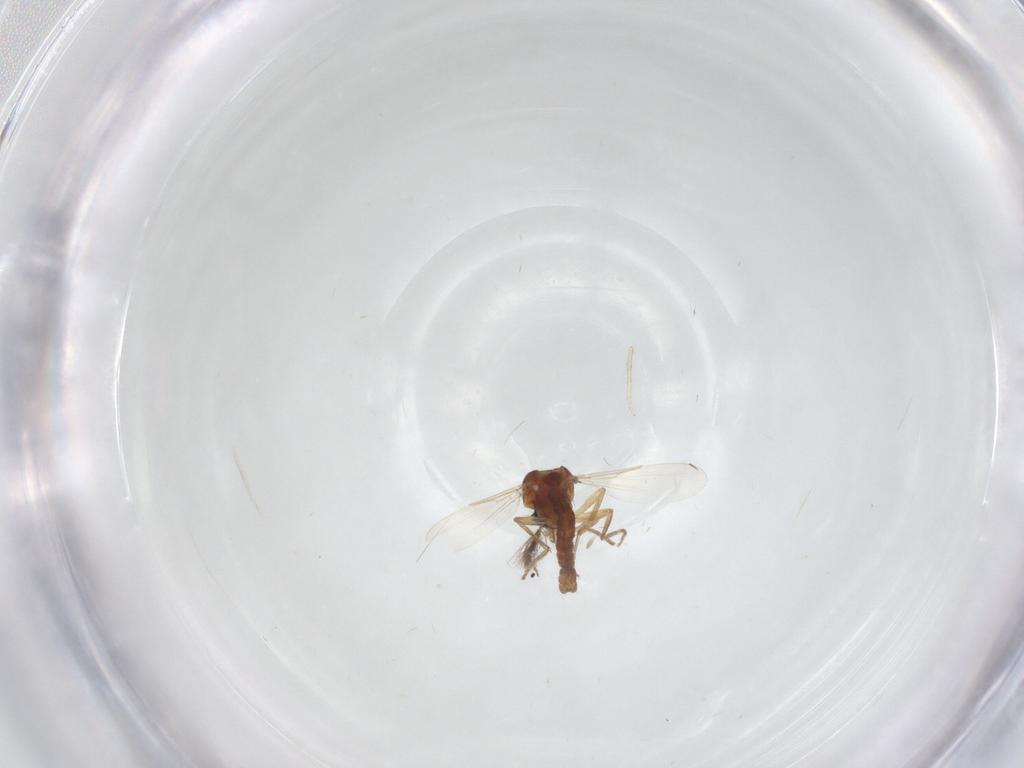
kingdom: Animalia
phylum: Arthropoda
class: Insecta
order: Diptera
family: Ceratopogonidae
